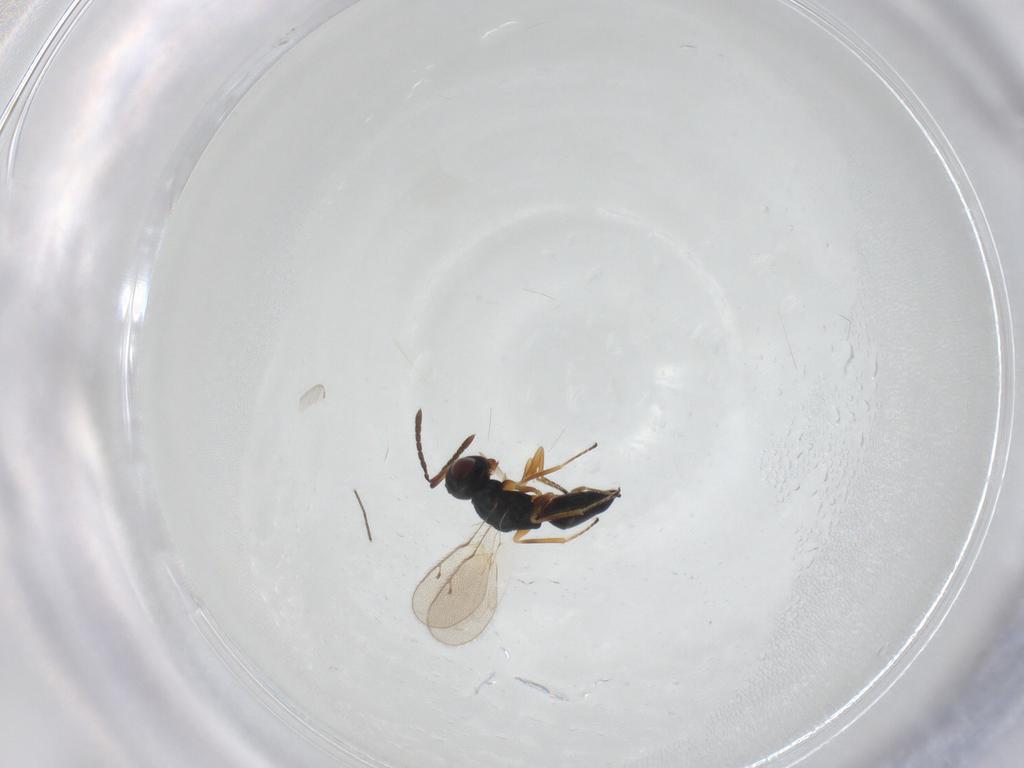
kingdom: Animalia
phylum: Arthropoda
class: Insecta
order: Hymenoptera
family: Pteromalidae
